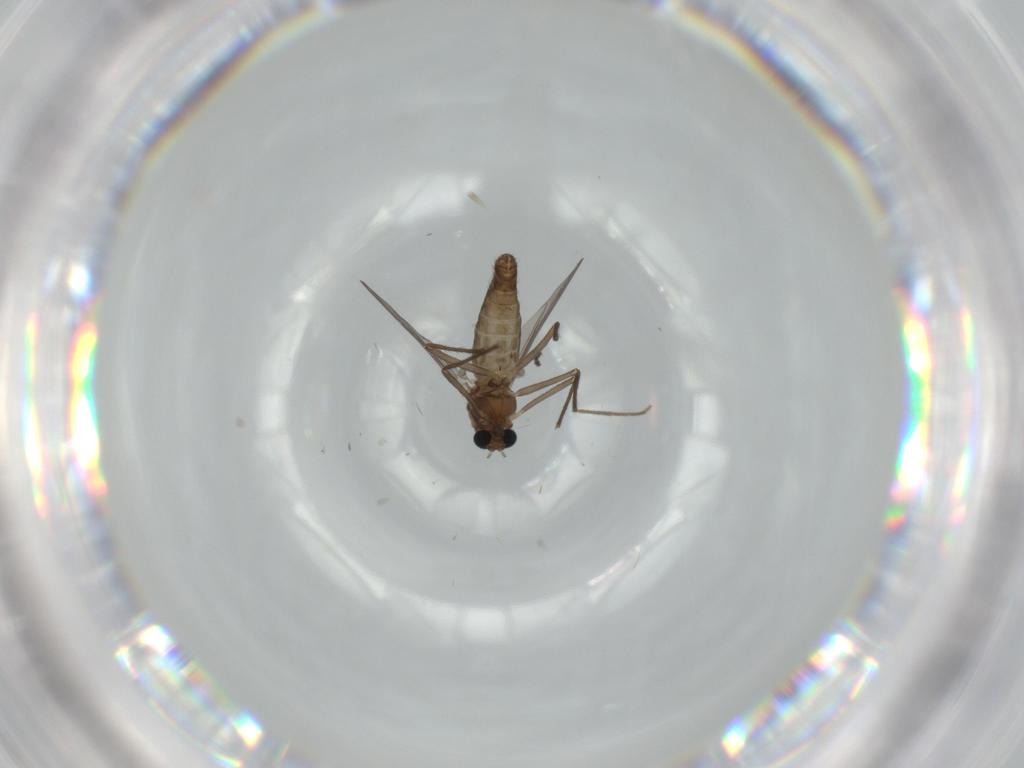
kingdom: Animalia
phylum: Arthropoda
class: Insecta
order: Diptera
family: Chironomidae
